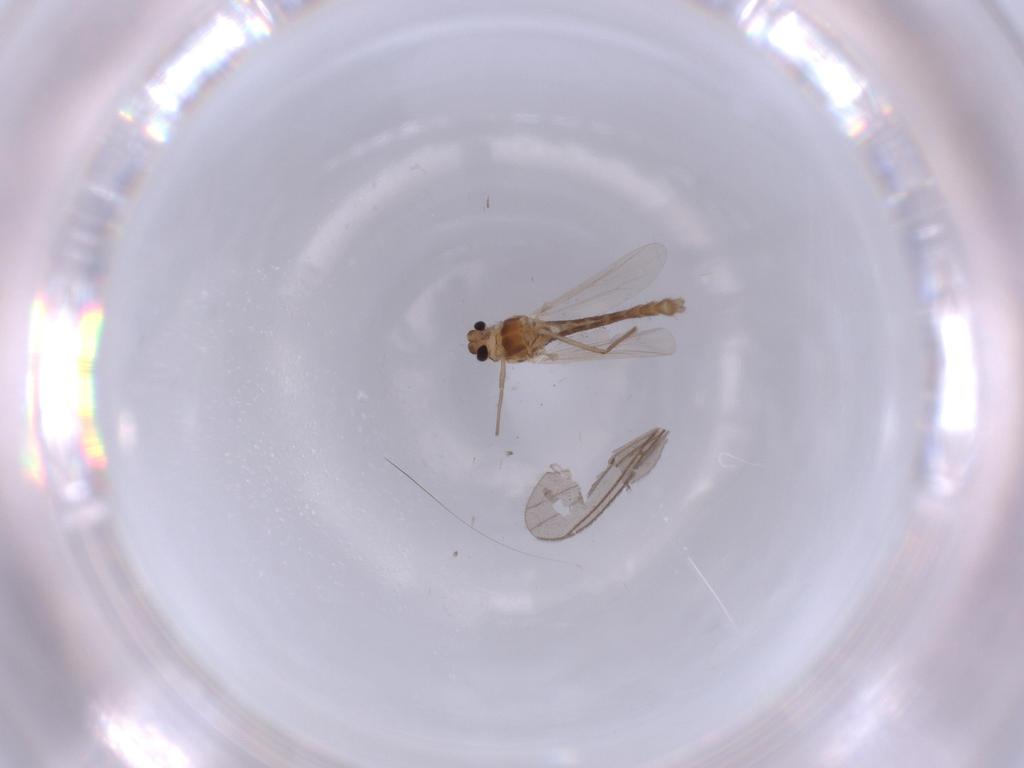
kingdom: Animalia
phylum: Arthropoda
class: Insecta
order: Diptera
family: Chironomidae
